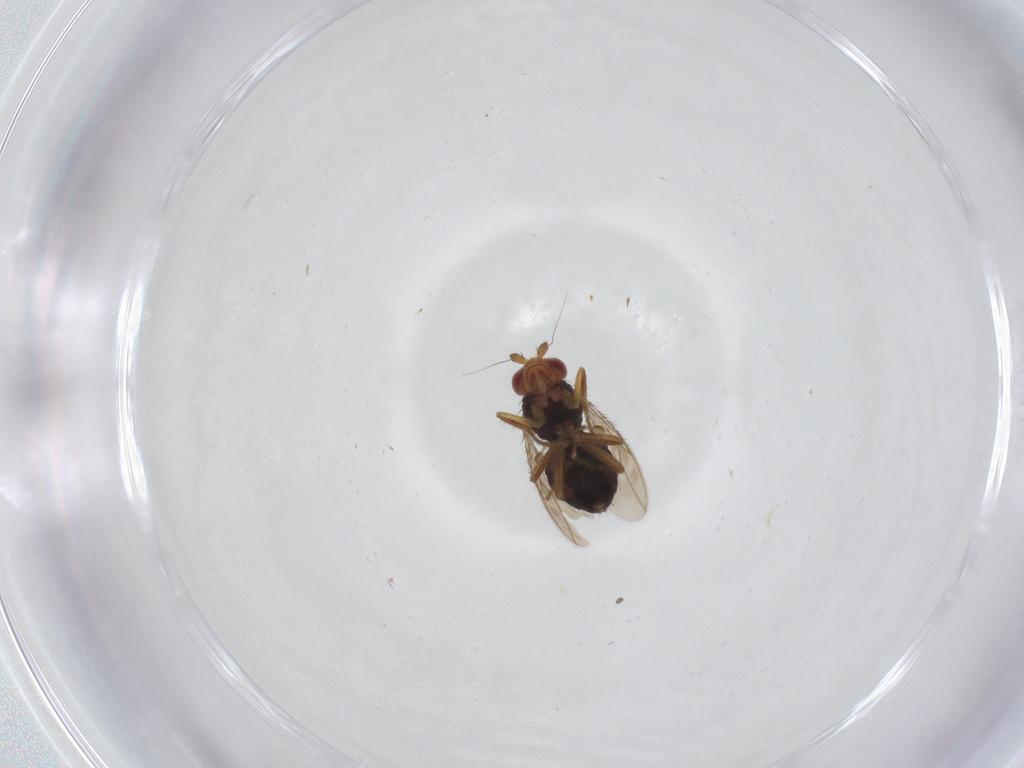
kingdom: Animalia
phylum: Arthropoda
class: Insecta
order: Diptera
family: Sphaeroceridae
